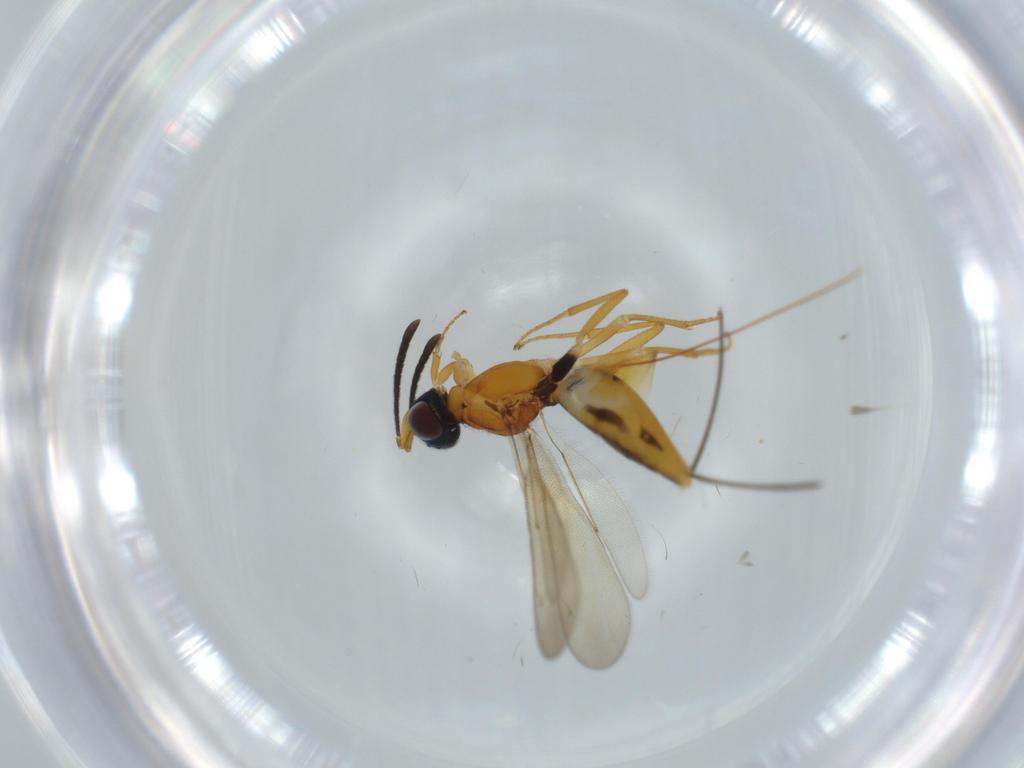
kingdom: Animalia
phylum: Arthropoda
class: Insecta
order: Hymenoptera
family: Eupelmidae
